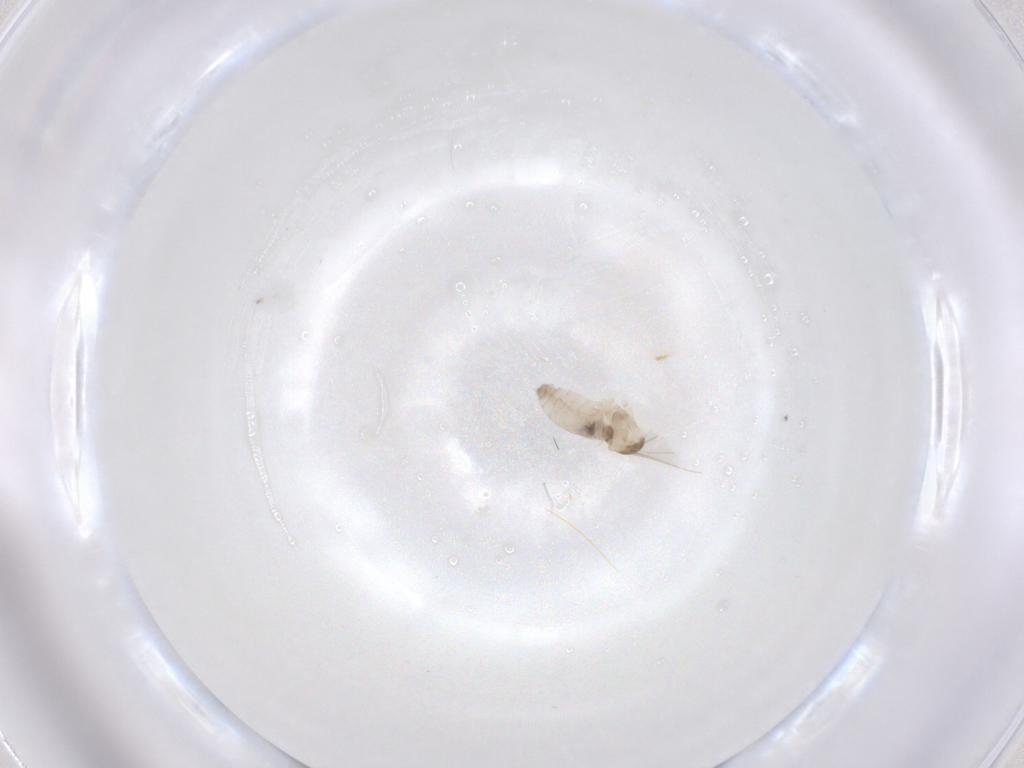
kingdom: Animalia
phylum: Arthropoda
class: Insecta
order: Diptera
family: Cecidomyiidae
